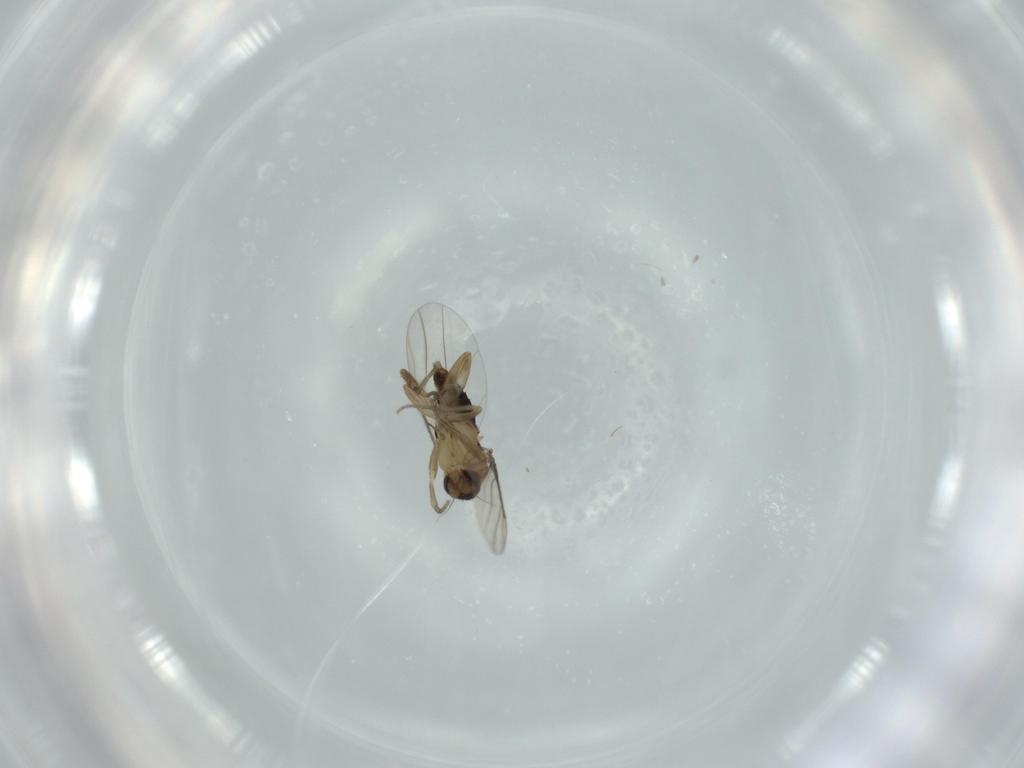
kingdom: Animalia
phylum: Arthropoda
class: Insecta
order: Diptera
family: Phoridae
